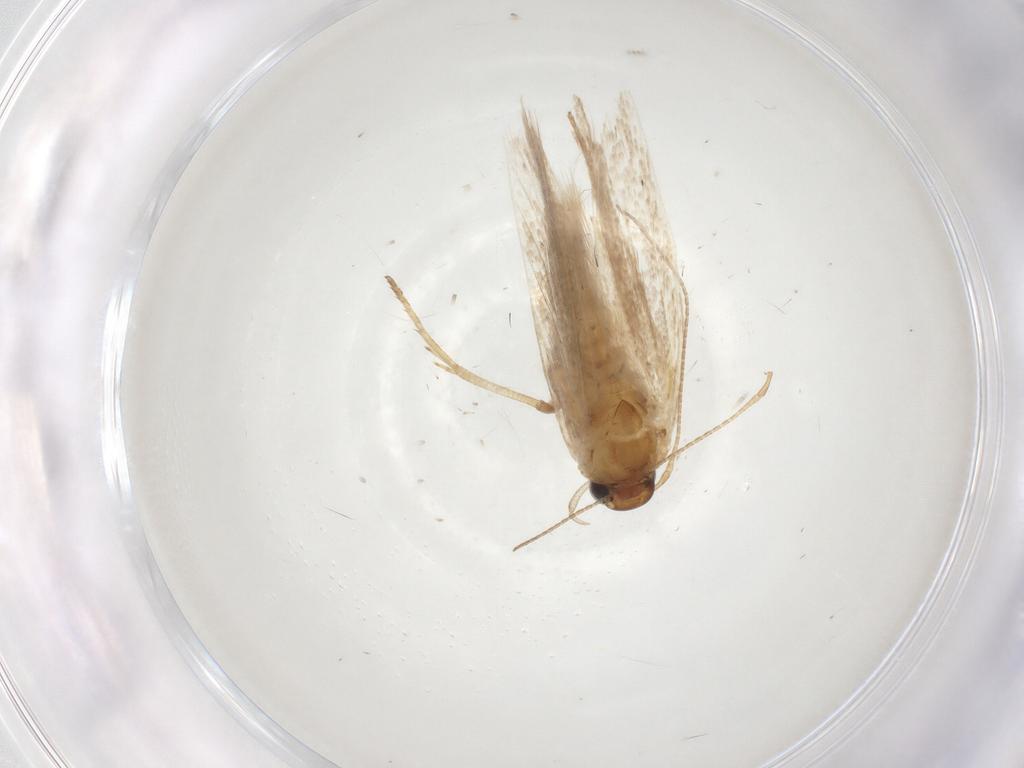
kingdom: Animalia
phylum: Arthropoda
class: Insecta
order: Lepidoptera
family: Gelechiidae
